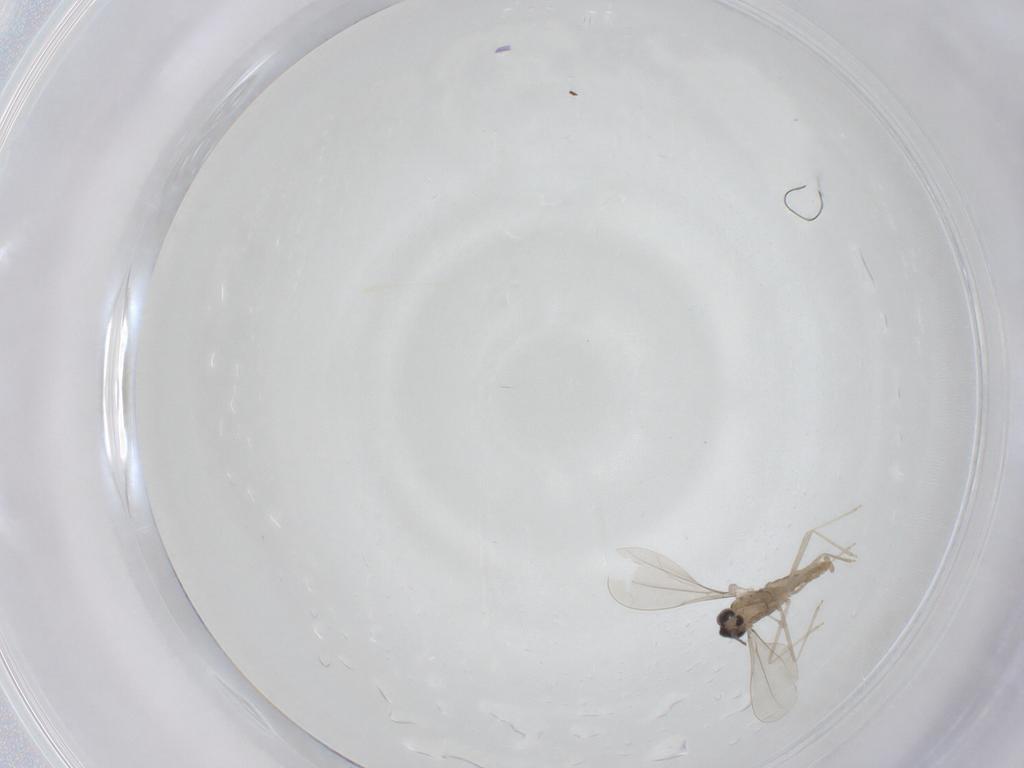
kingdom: Animalia
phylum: Arthropoda
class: Insecta
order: Diptera
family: Cecidomyiidae
